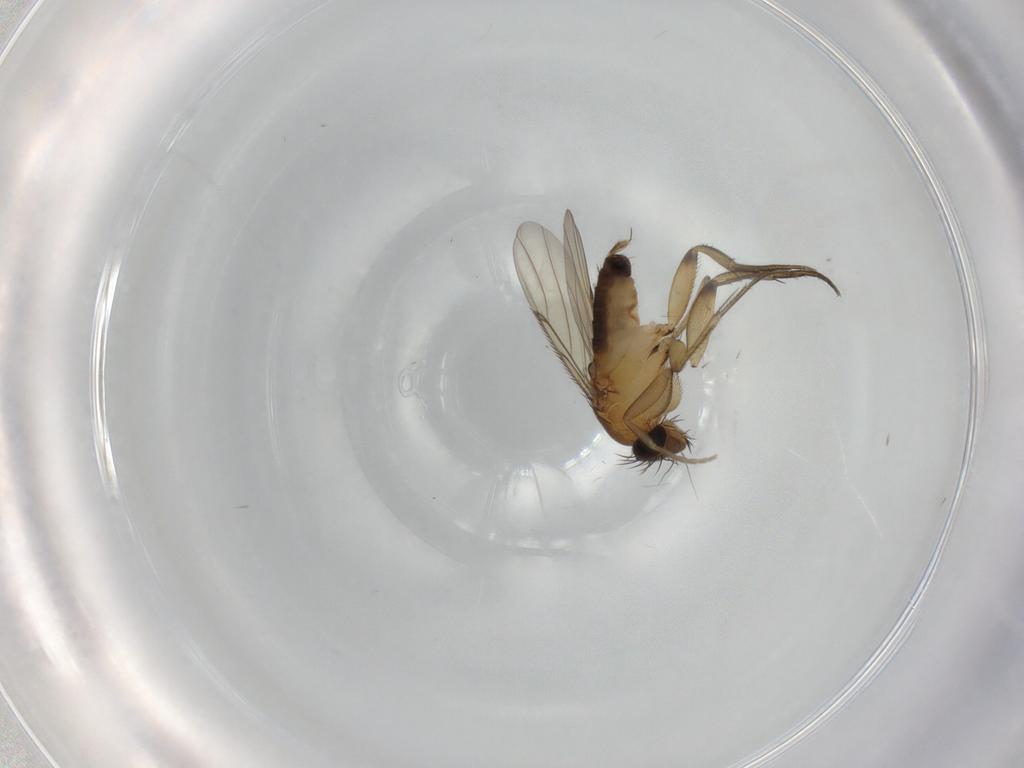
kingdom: Animalia
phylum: Arthropoda
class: Insecta
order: Diptera
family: Phoridae
